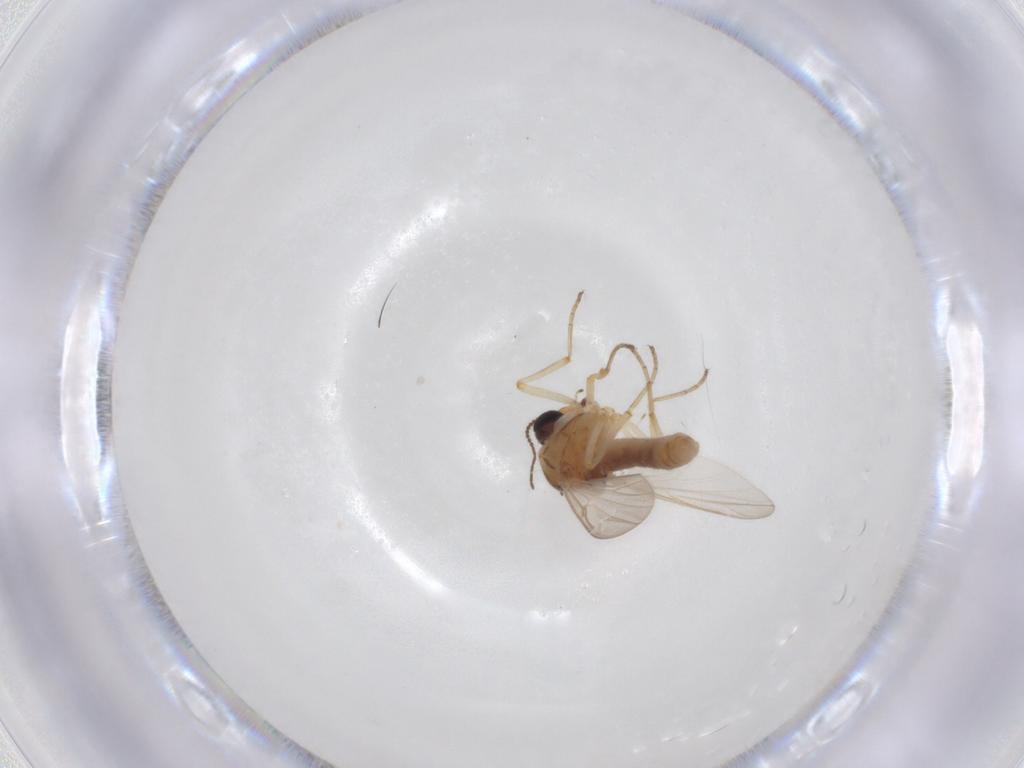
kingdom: Animalia
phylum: Arthropoda
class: Insecta
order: Diptera
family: Chironomidae
